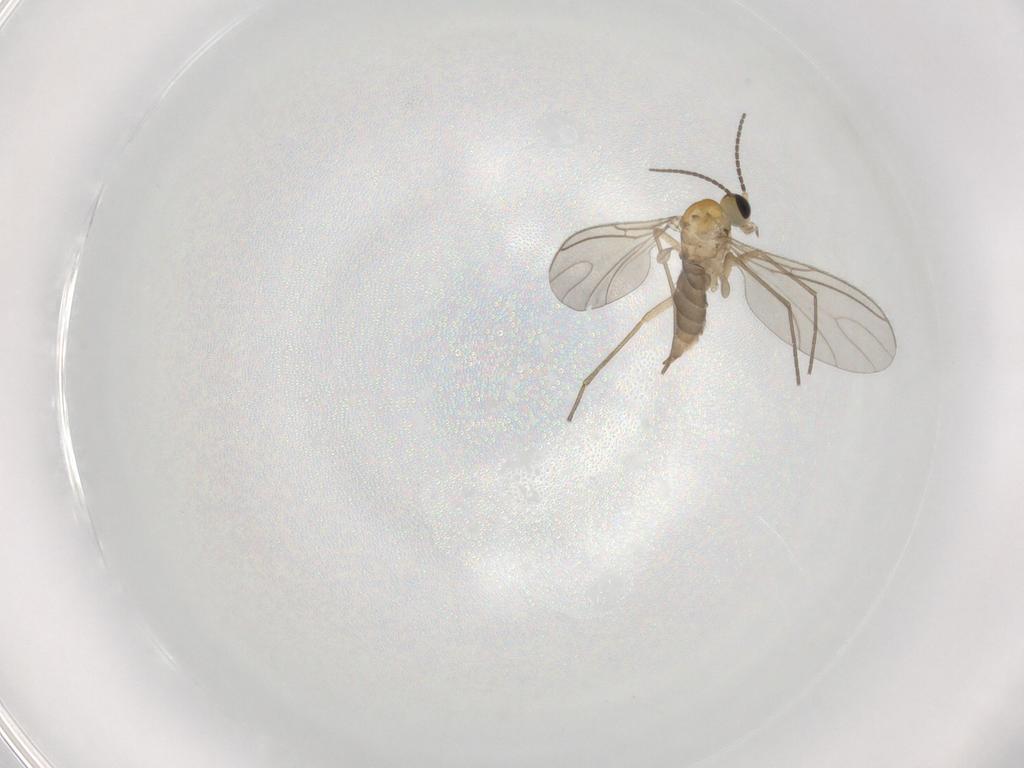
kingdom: Animalia
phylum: Arthropoda
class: Insecta
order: Diptera
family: Sciaridae
